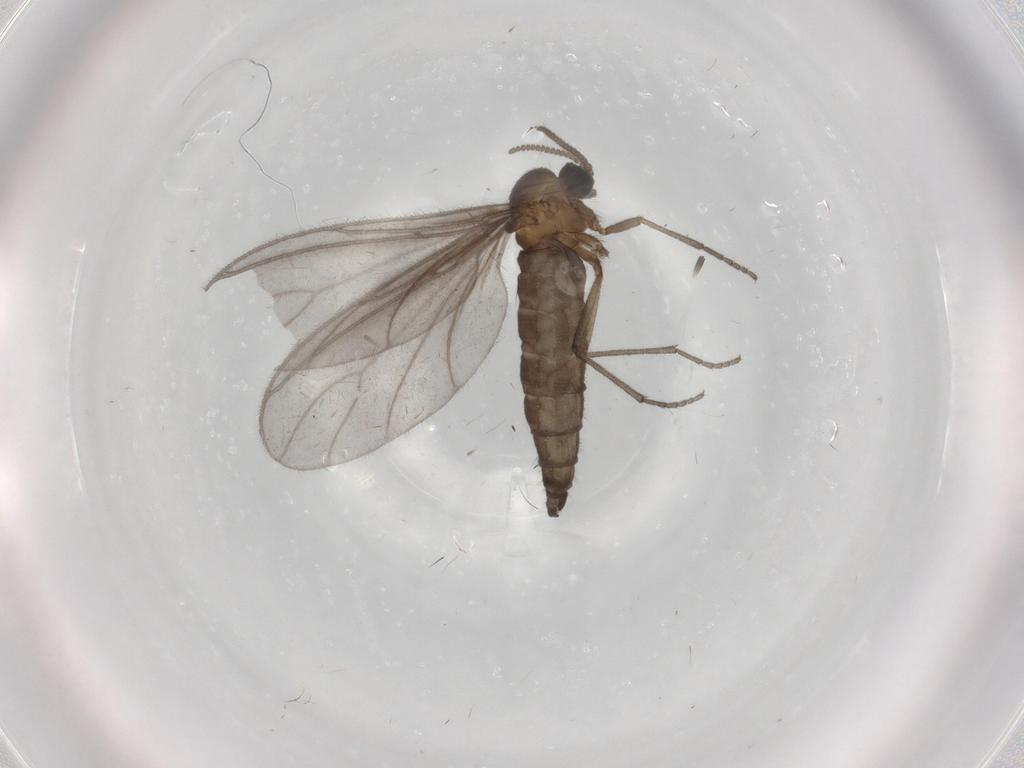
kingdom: Animalia
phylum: Arthropoda
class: Insecta
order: Diptera
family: Sciaridae
